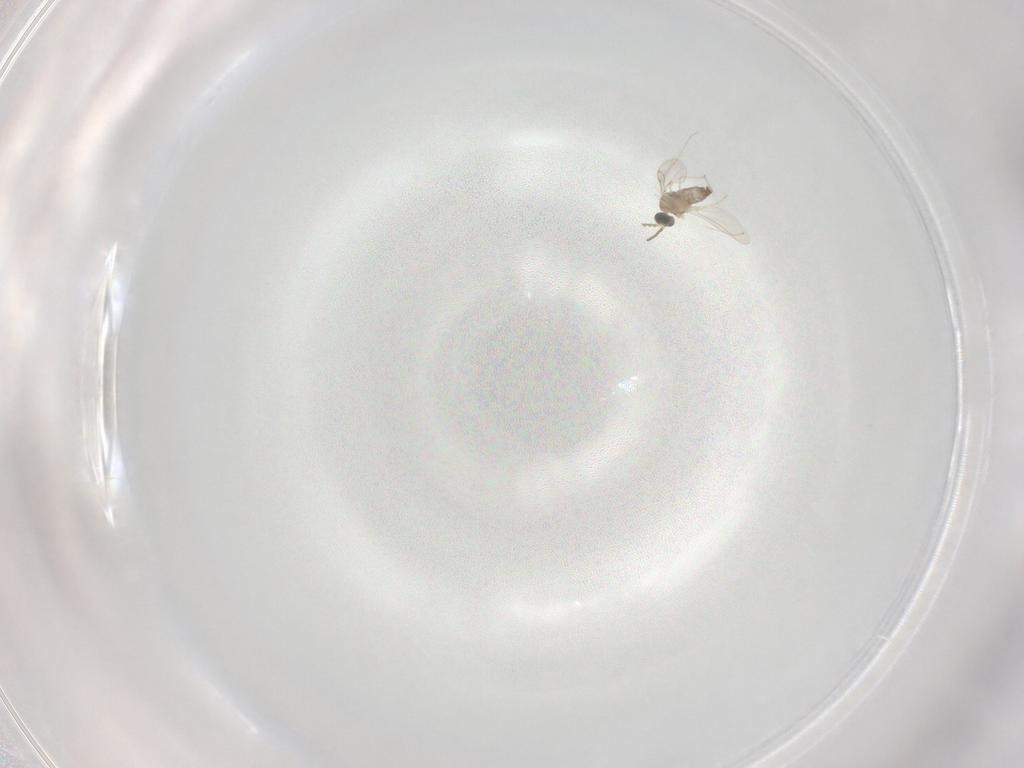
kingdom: Animalia
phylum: Arthropoda
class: Insecta
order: Diptera
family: Cecidomyiidae
